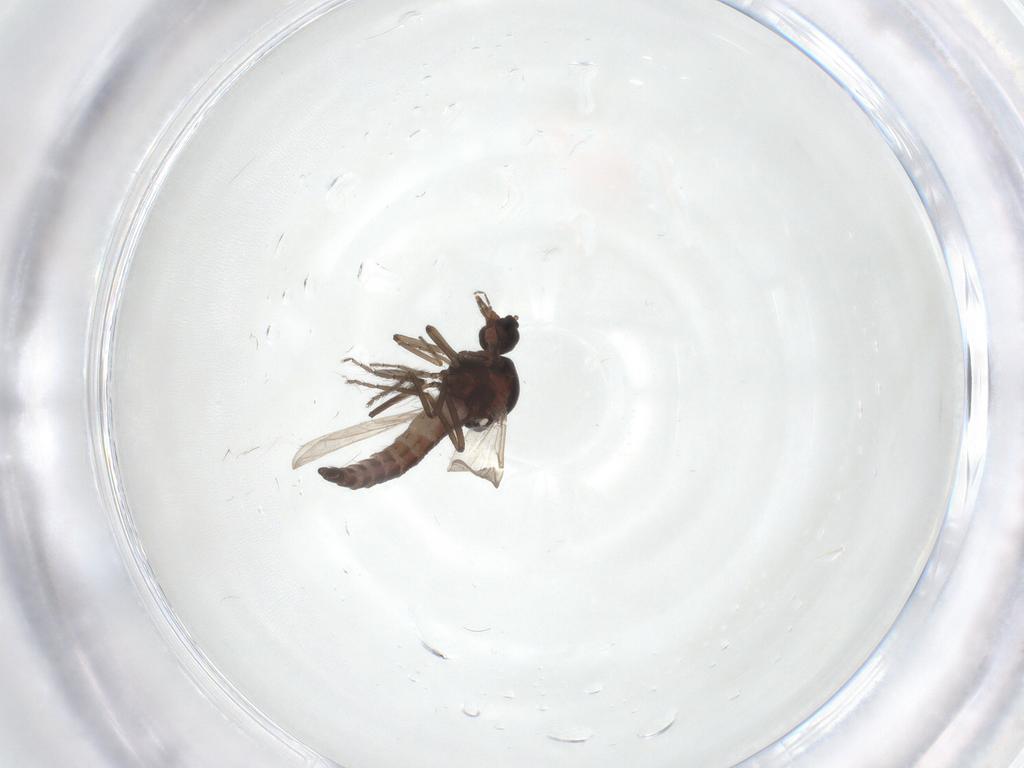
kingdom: Animalia
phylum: Arthropoda
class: Insecta
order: Diptera
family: Ceratopogonidae
